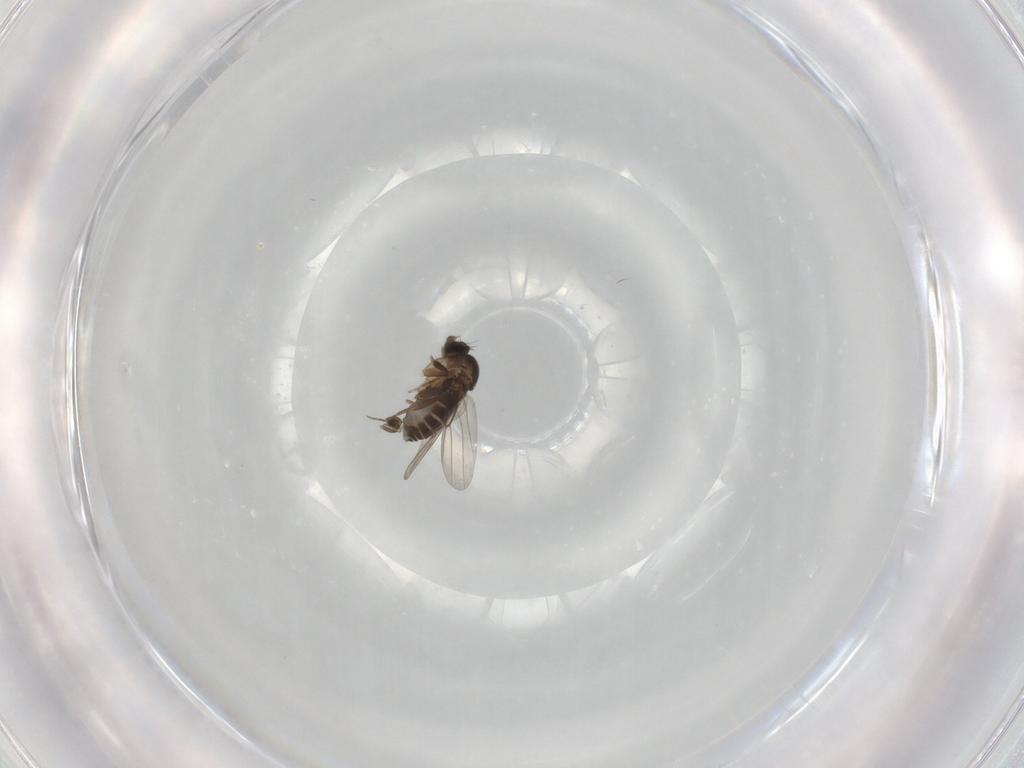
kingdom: Animalia
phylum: Arthropoda
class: Insecta
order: Diptera
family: Phoridae
